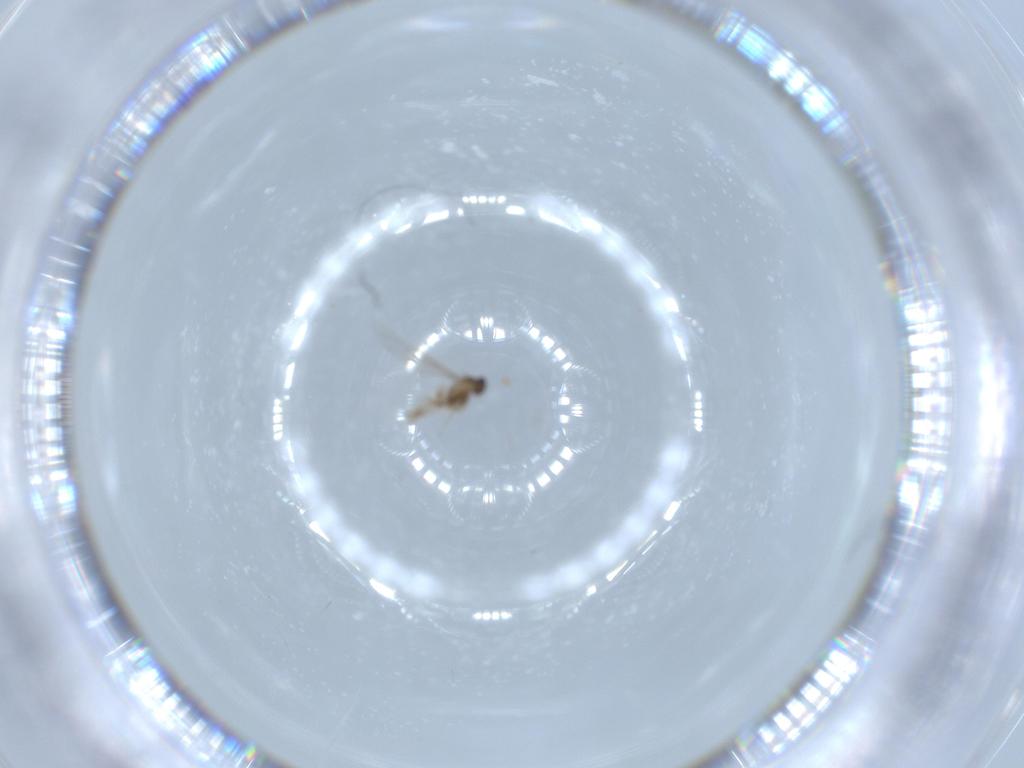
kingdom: Animalia
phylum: Arthropoda
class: Insecta
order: Diptera
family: Cecidomyiidae
